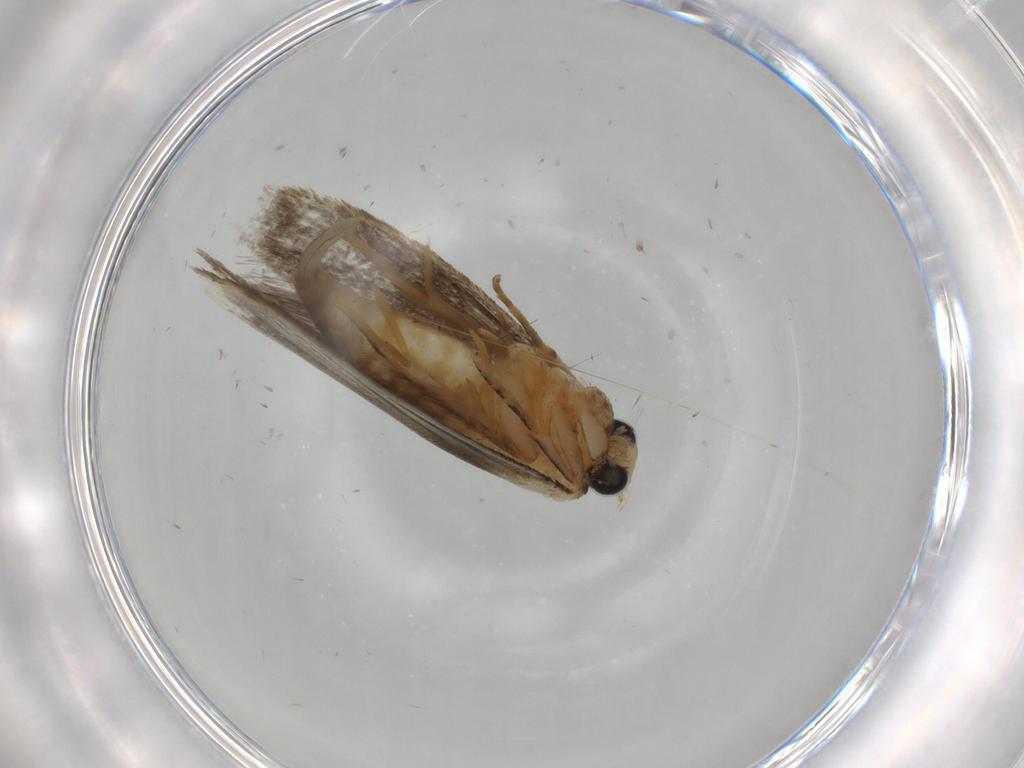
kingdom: Animalia
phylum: Arthropoda
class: Insecta
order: Lepidoptera
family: Tineidae
